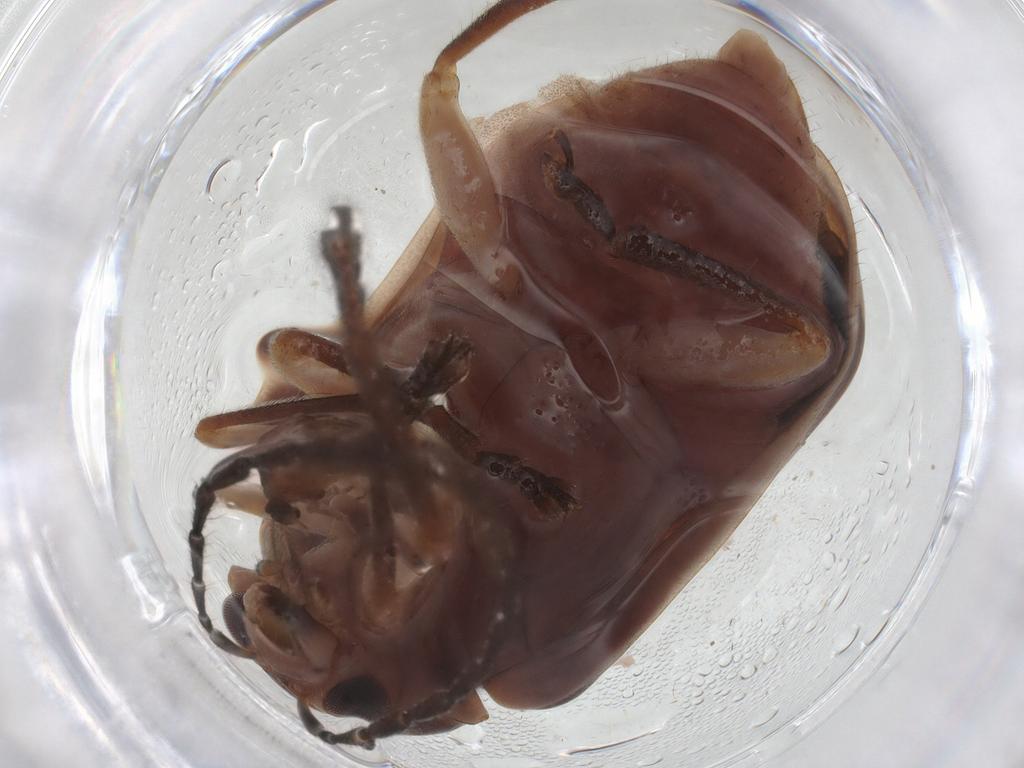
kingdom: Animalia
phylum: Arthropoda
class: Insecta
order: Coleoptera
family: Chrysomelidae
